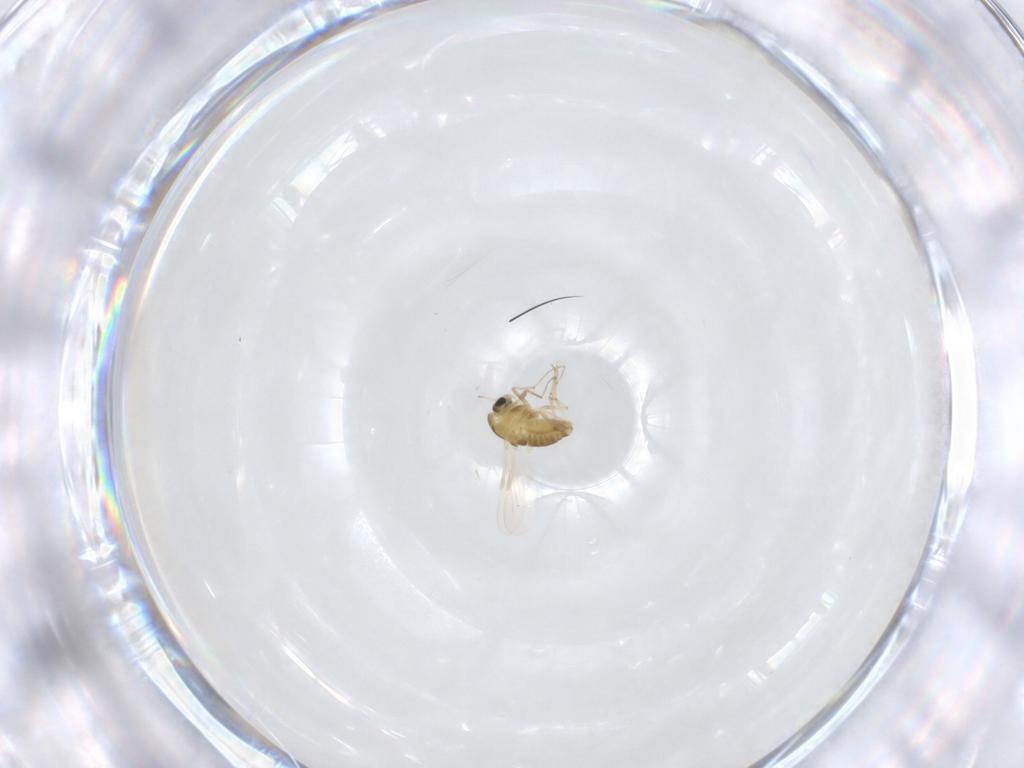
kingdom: Animalia
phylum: Arthropoda
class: Insecta
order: Diptera
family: Chironomidae
